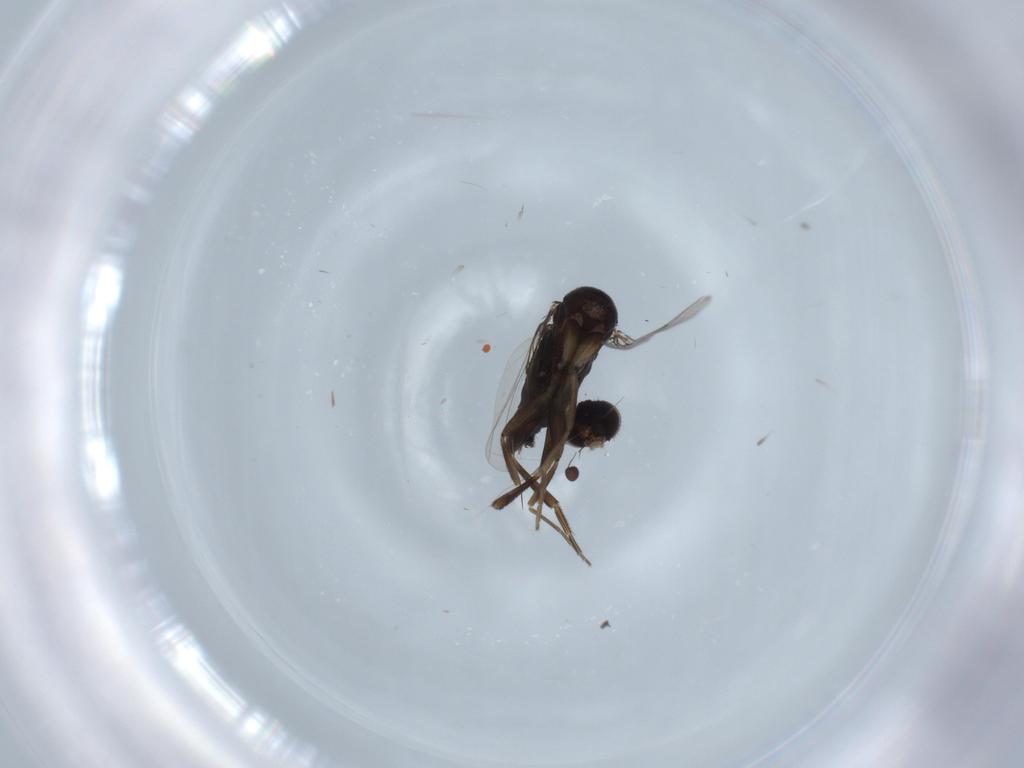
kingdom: Animalia
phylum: Arthropoda
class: Insecta
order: Diptera
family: Phoridae
